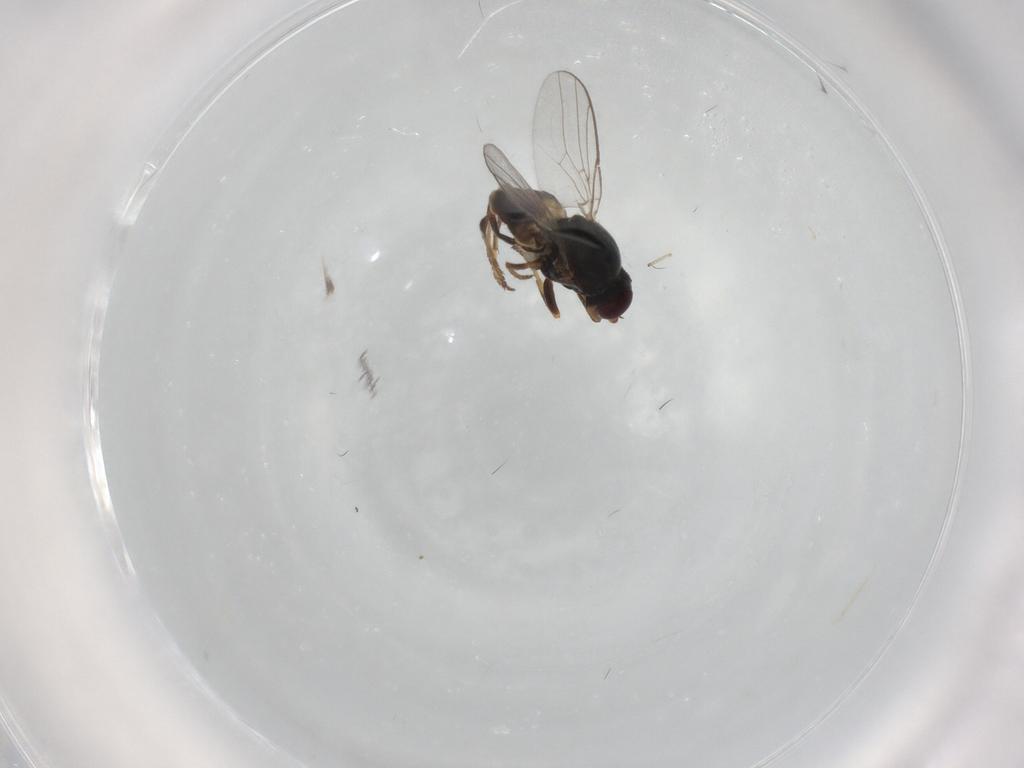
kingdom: Animalia
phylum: Arthropoda
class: Insecta
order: Diptera
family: Chloropidae
